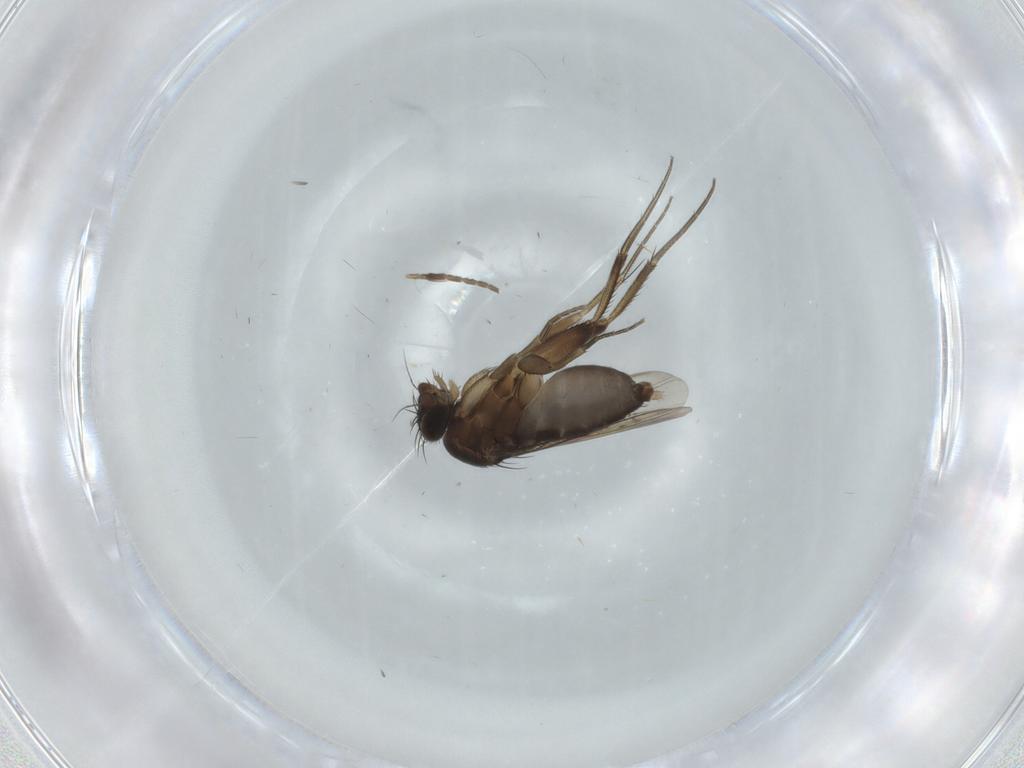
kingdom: Animalia
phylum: Arthropoda
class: Insecta
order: Diptera
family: Phoridae
